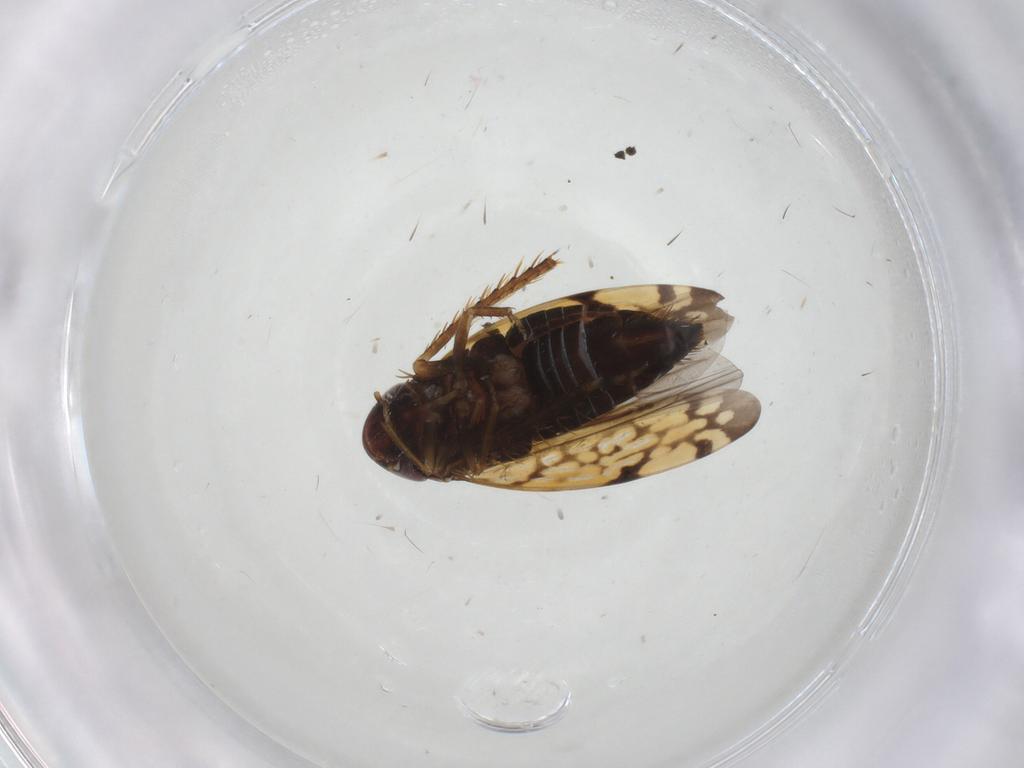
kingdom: Animalia
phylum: Arthropoda
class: Insecta
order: Hemiptera
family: Cicadellidae
